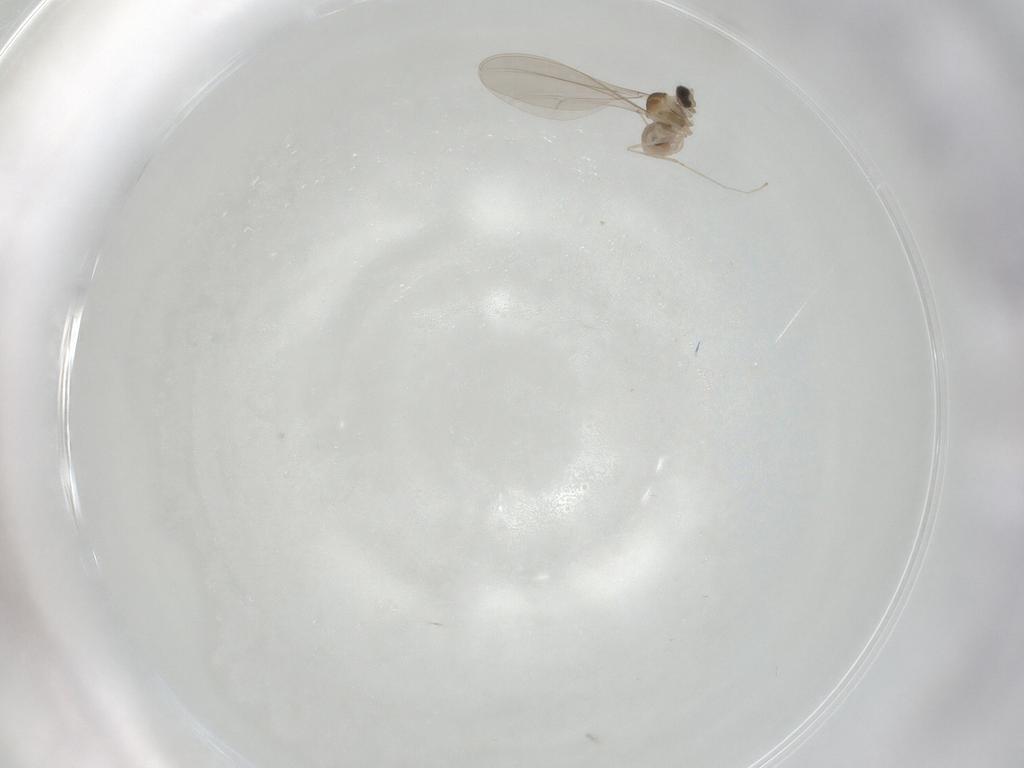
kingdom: Animalia
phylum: Arthropoda
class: Insecta
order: Diptera
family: Cecidomyiidae
